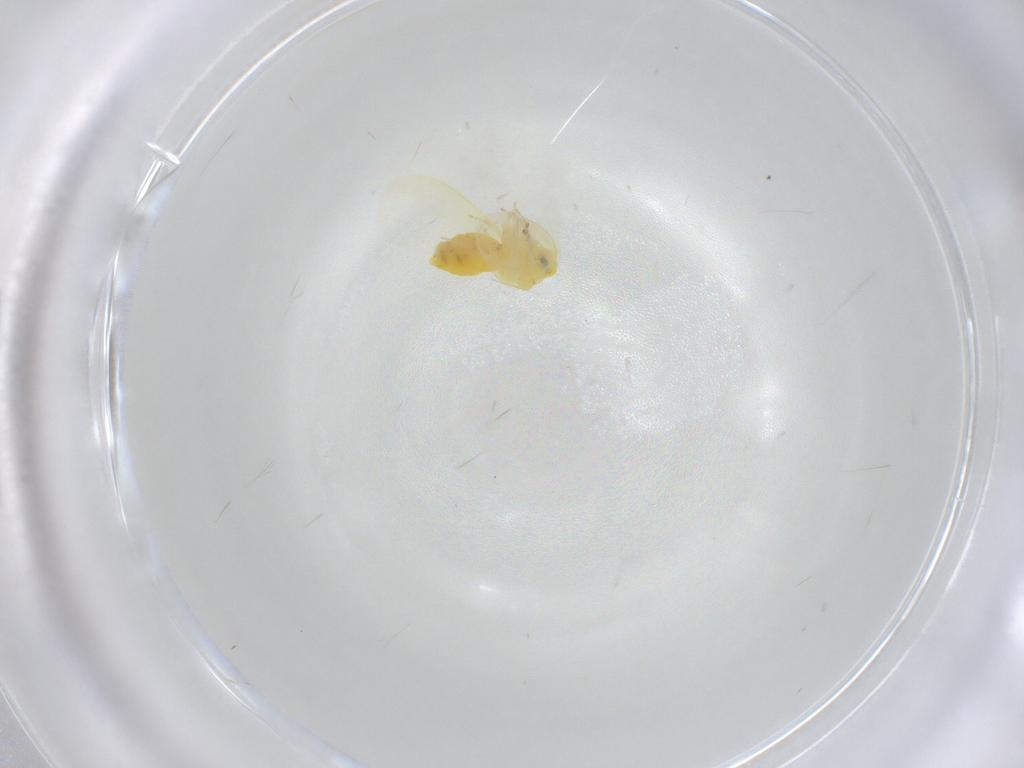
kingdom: Animalia
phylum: Arthropoda
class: Insecta
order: Hemiptera
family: Aleyrodidae
